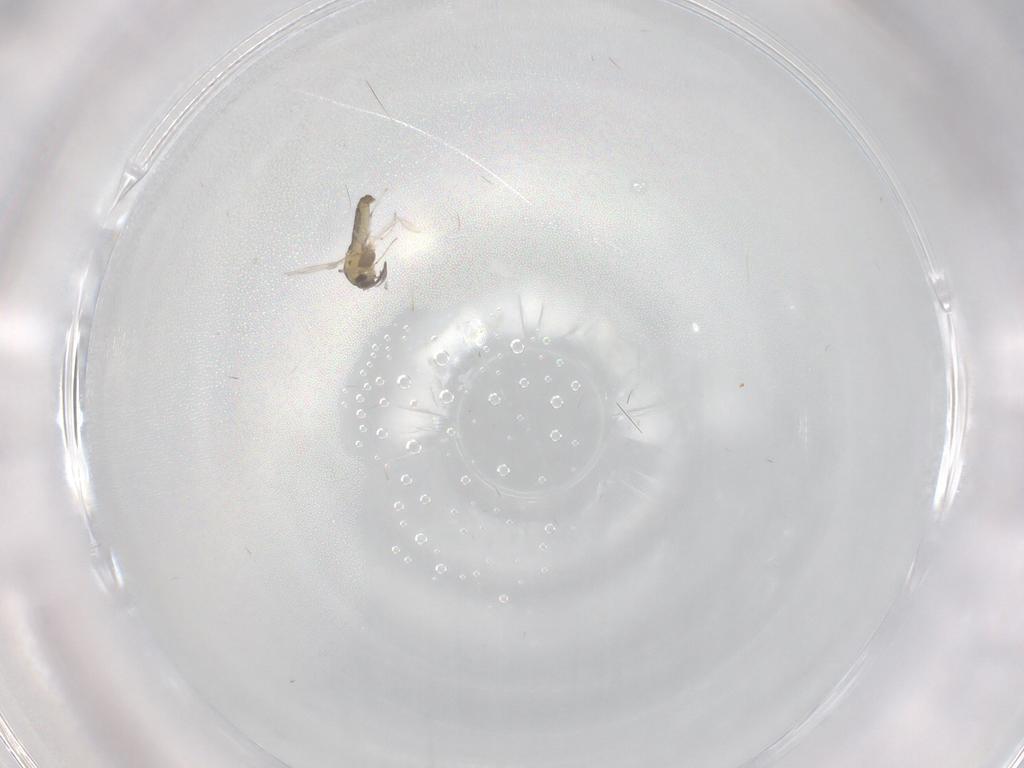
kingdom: Animalia
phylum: Arthropoda
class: Insecta
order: Diptera
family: Chironomidae
